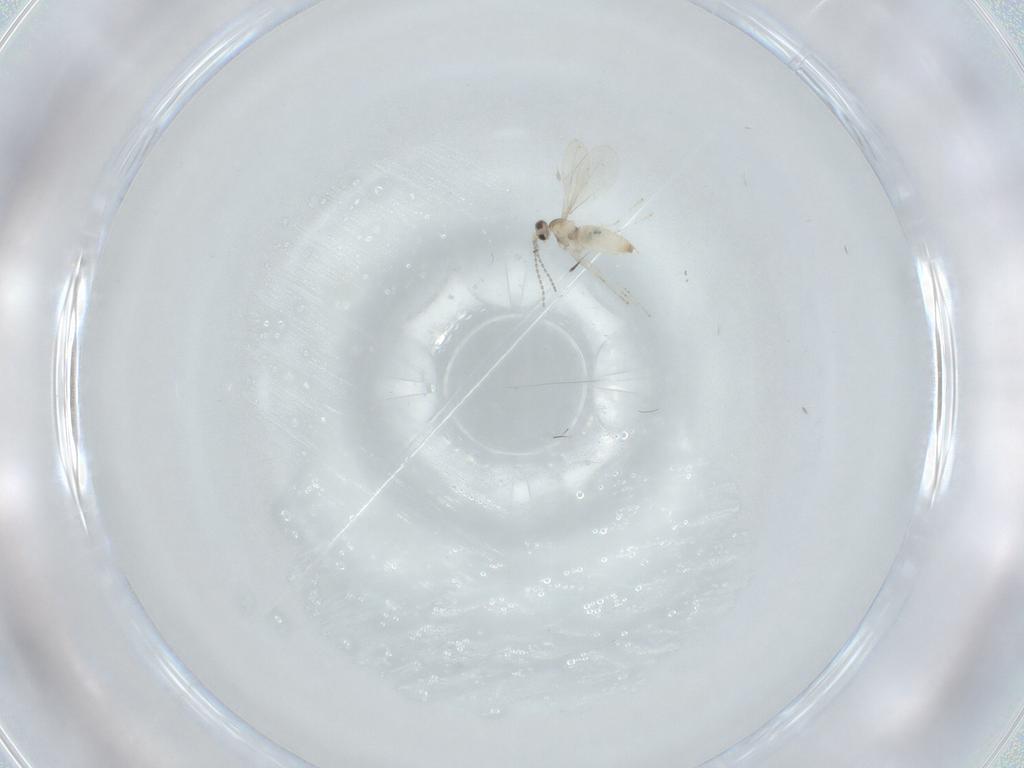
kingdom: Animalia
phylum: Arthropoda
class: Insecta
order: Diptera
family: Cecidomyiidae
